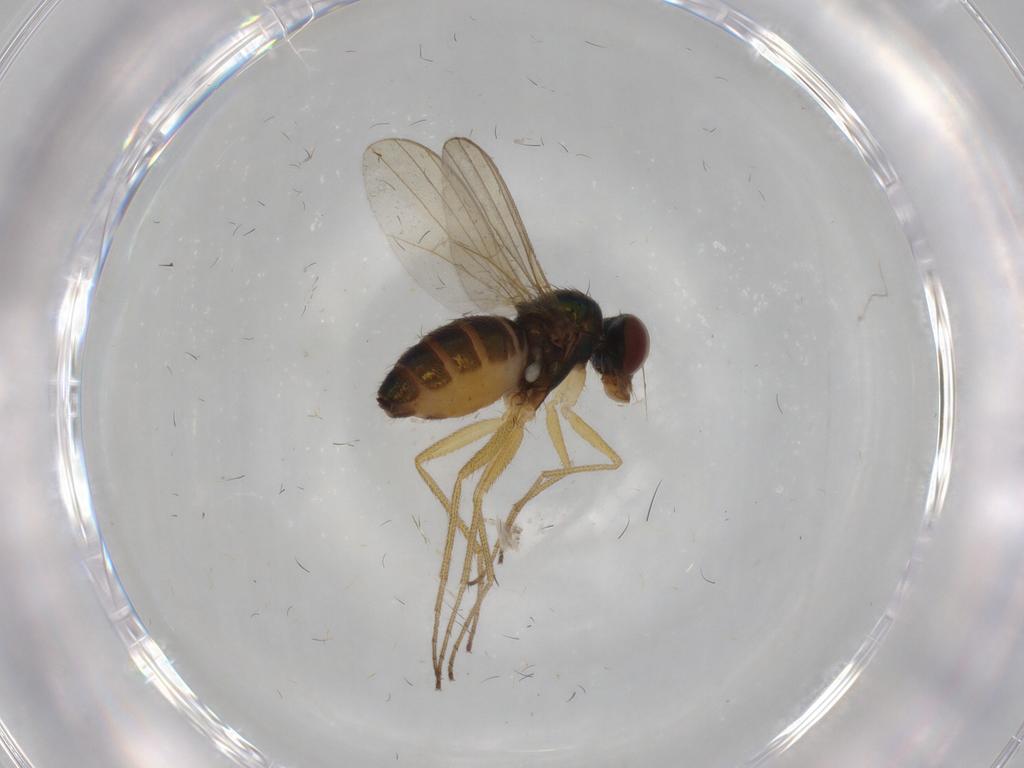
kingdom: Animalia
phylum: Arthropoda
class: Insecta
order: Diptera
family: Dolichopodidae
